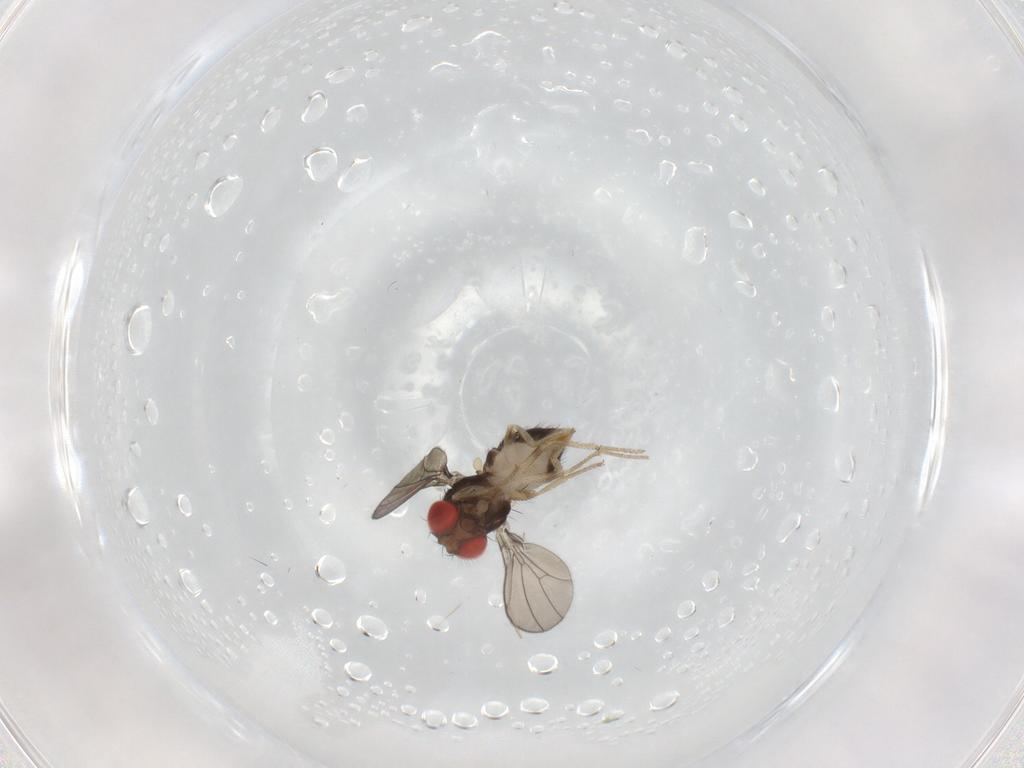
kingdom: Animalia
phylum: Arthropoda
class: Insecta
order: Diptera
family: Drosophilidae
